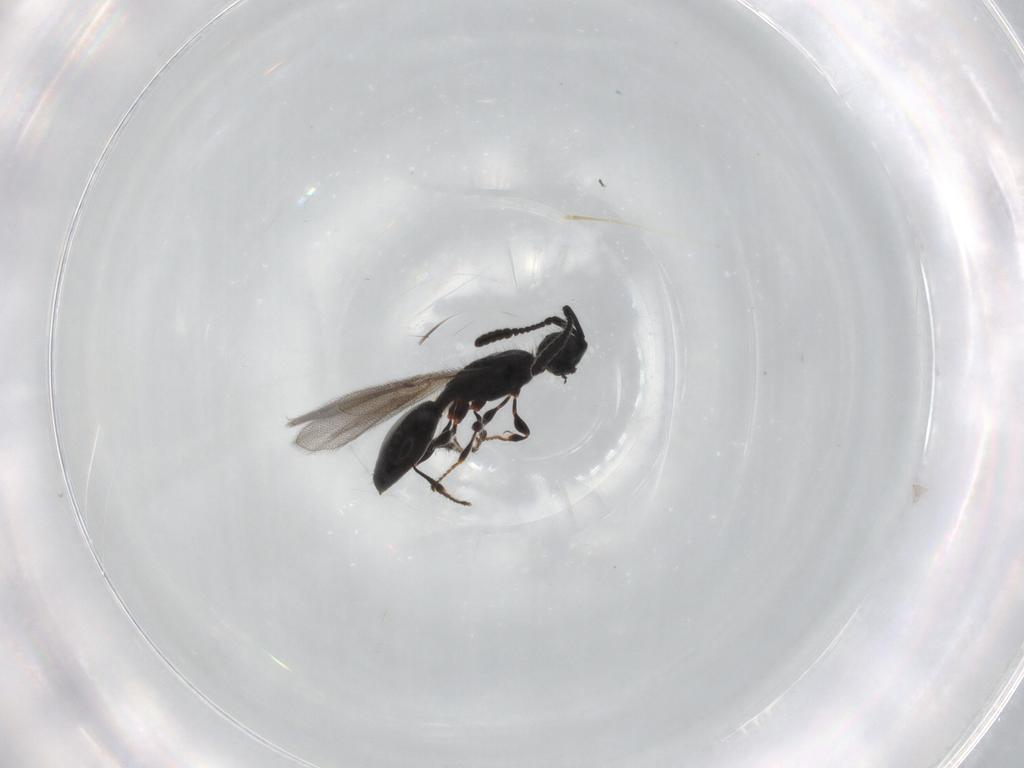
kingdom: Animalia
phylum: Arthropoda
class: Insecta
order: Hymenoptera
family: Diapriidae
